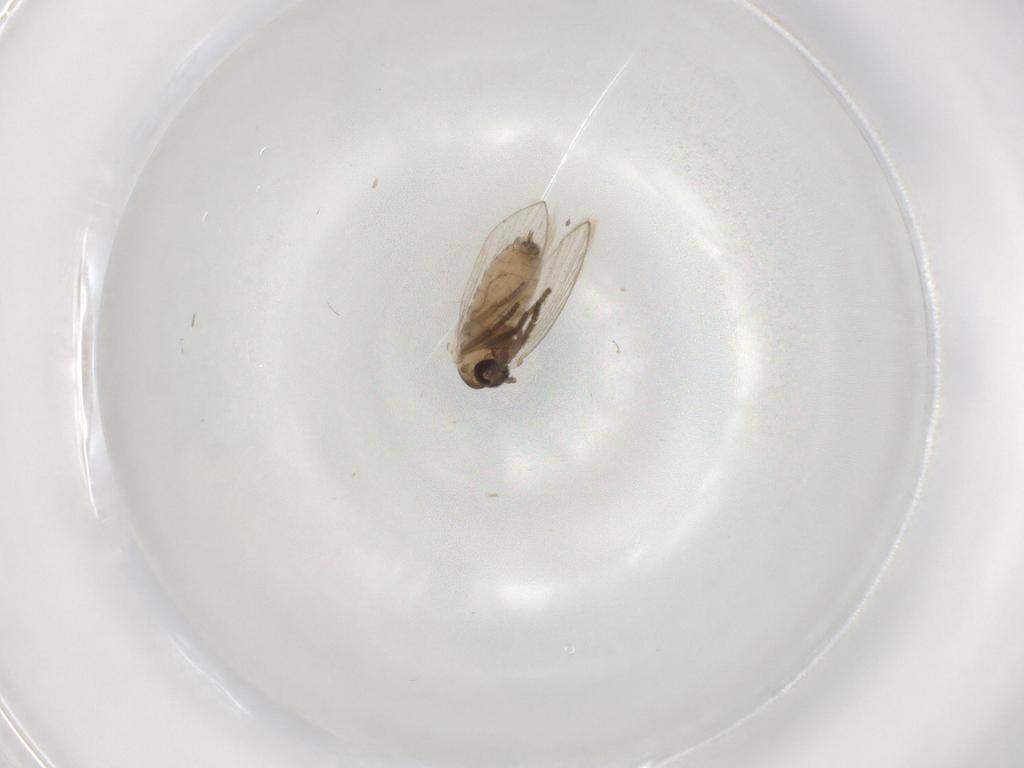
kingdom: Animalia
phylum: Arthropoda
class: Insecta
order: Diptera
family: Psychodidae
